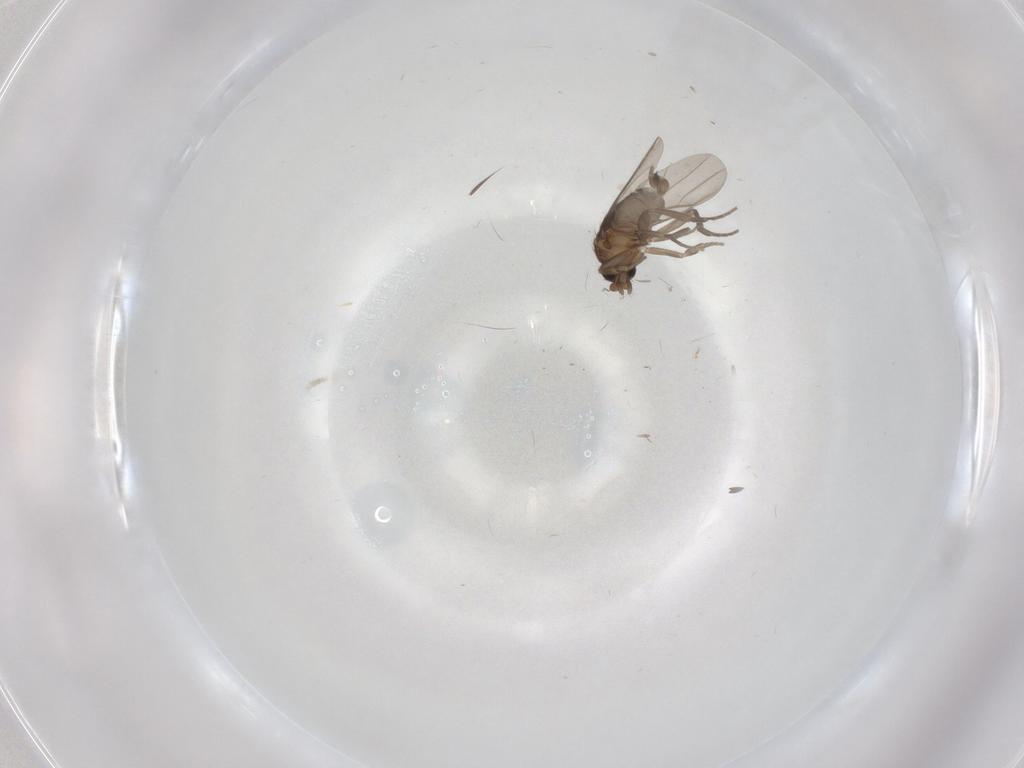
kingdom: Animalia
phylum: Arthropoda
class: Insecta
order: Diptera
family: Cecidomyiidae
